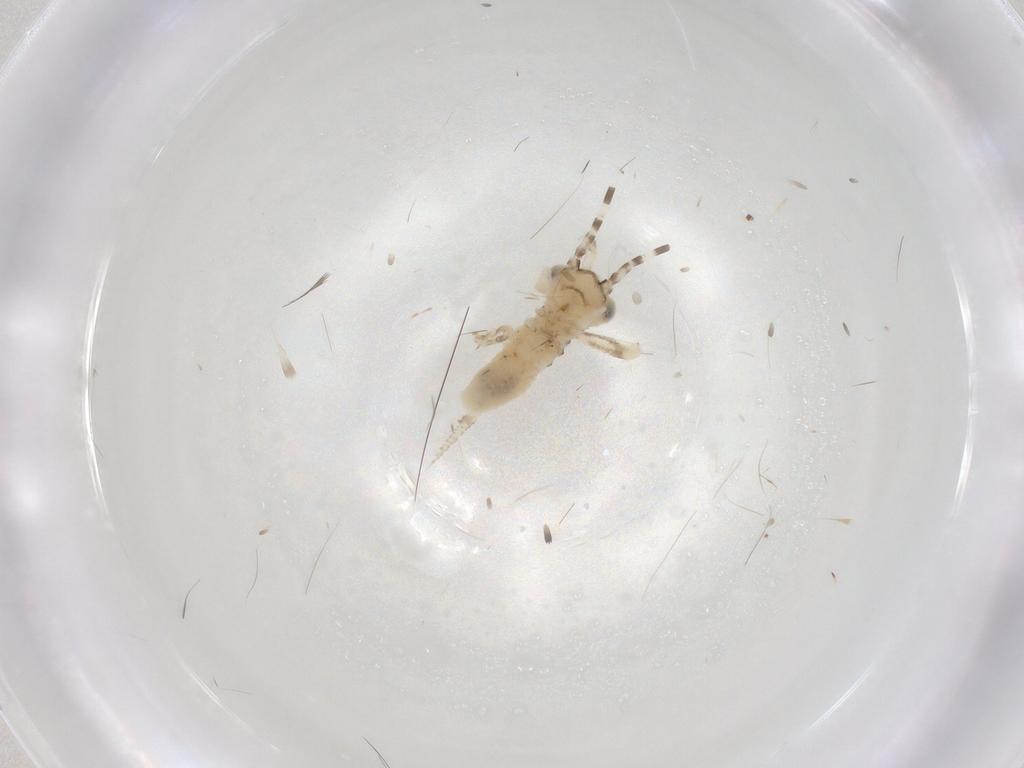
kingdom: Animalia
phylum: Arthropoda
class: Insecta
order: Orthoptera
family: Trigonidiidae
